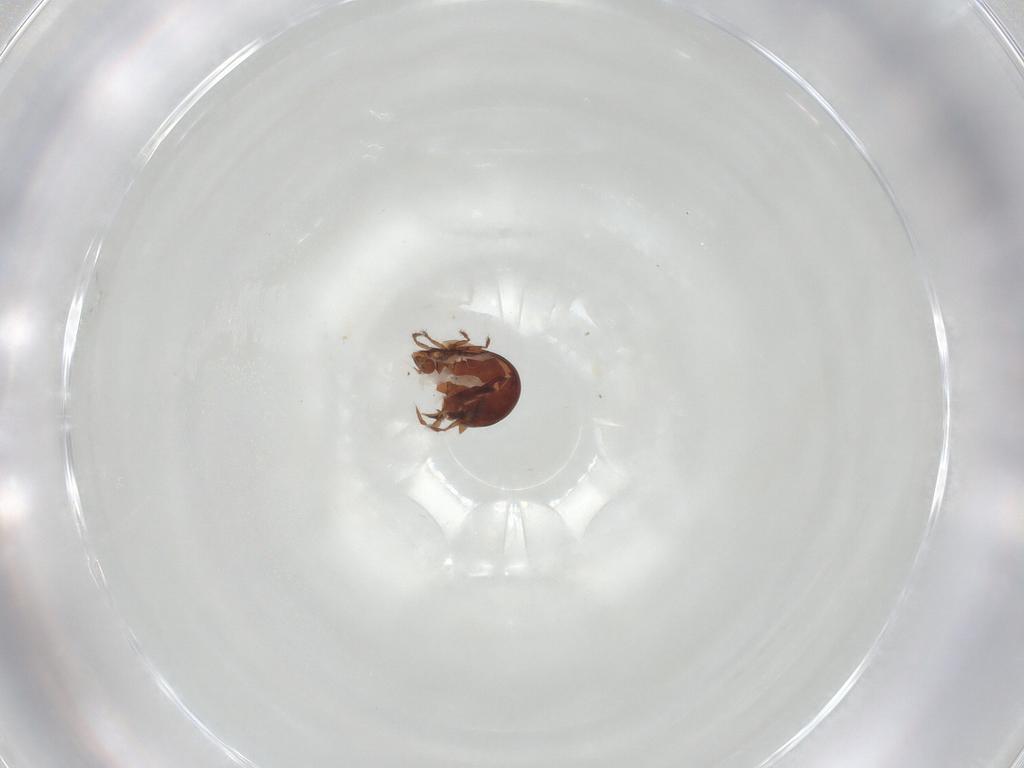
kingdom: Animalia
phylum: Arthropoda
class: Arachnida
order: Sarcoptiformes
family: Ceratozetidae
